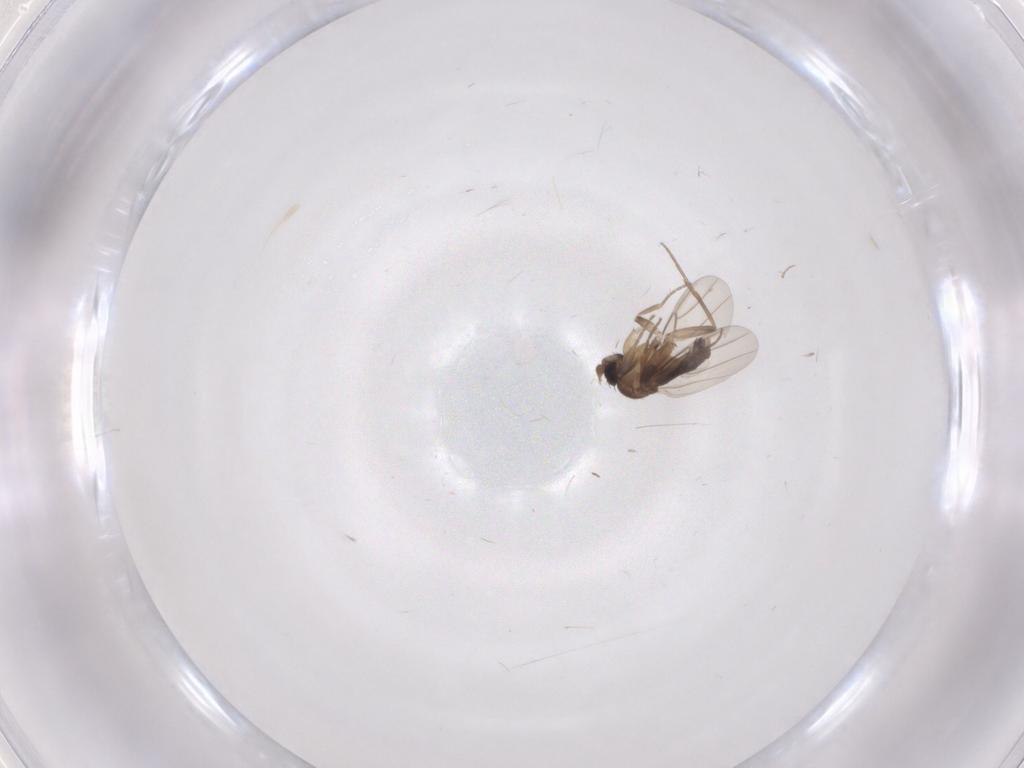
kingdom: Animalia
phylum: Arthropoda
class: Insecta
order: Diptera
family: Phoridae
